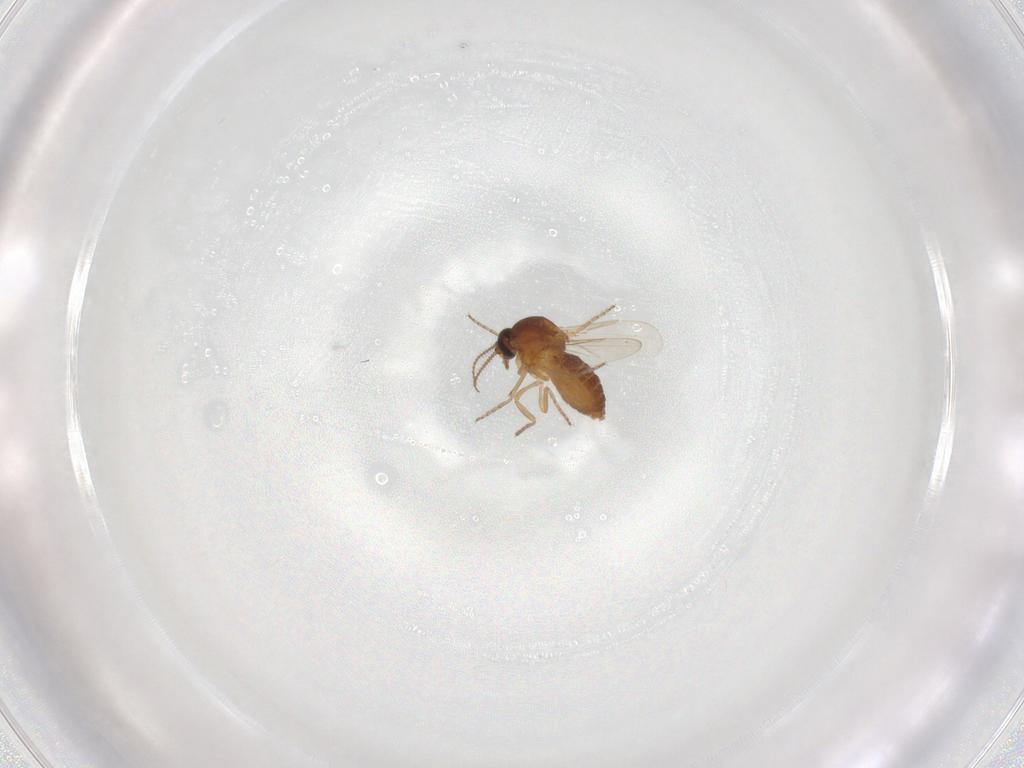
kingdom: Animalia
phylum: Arthropoda
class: Insecta
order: Diptera
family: Ceratopogonidae
